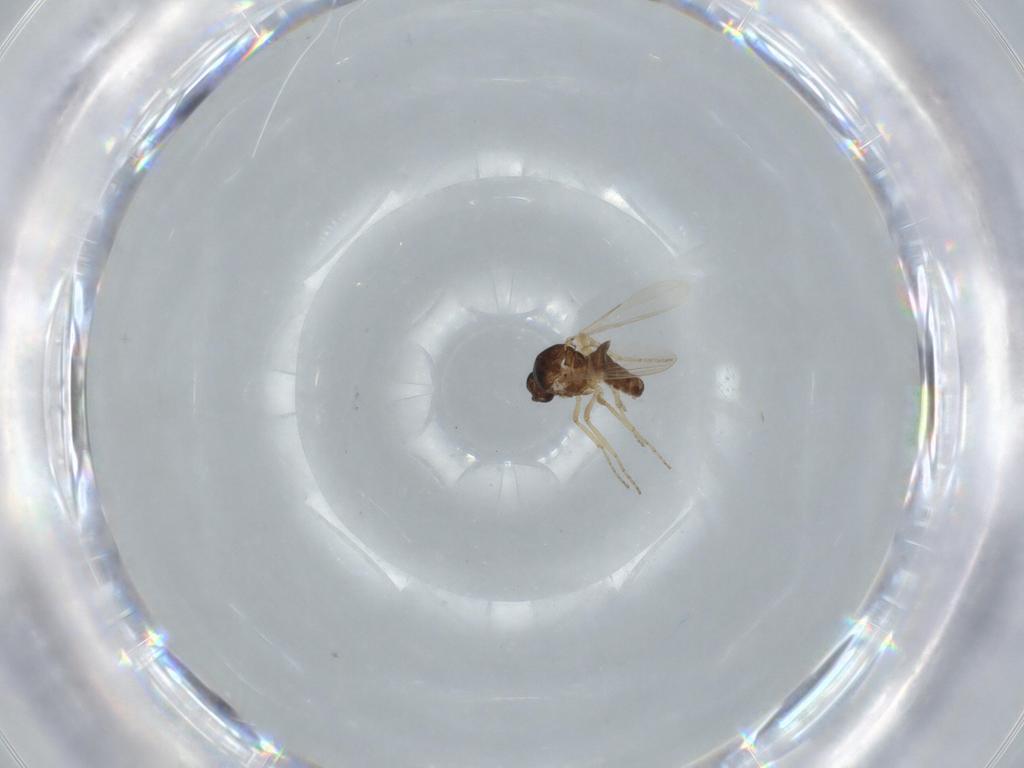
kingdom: Animalia
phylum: Arthropoda
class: Insecta
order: Diptera
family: Ceratopogonidae
